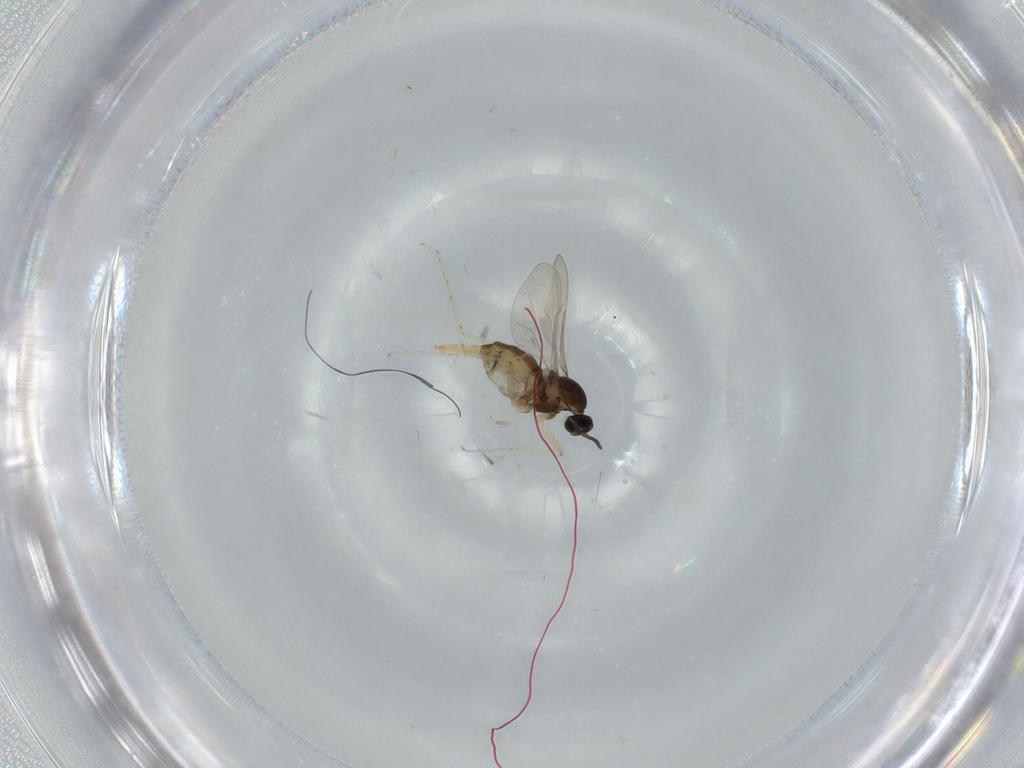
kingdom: Animalia
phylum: Arthropoda
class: Insecta
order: Diptera
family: Cecidomyiidae
